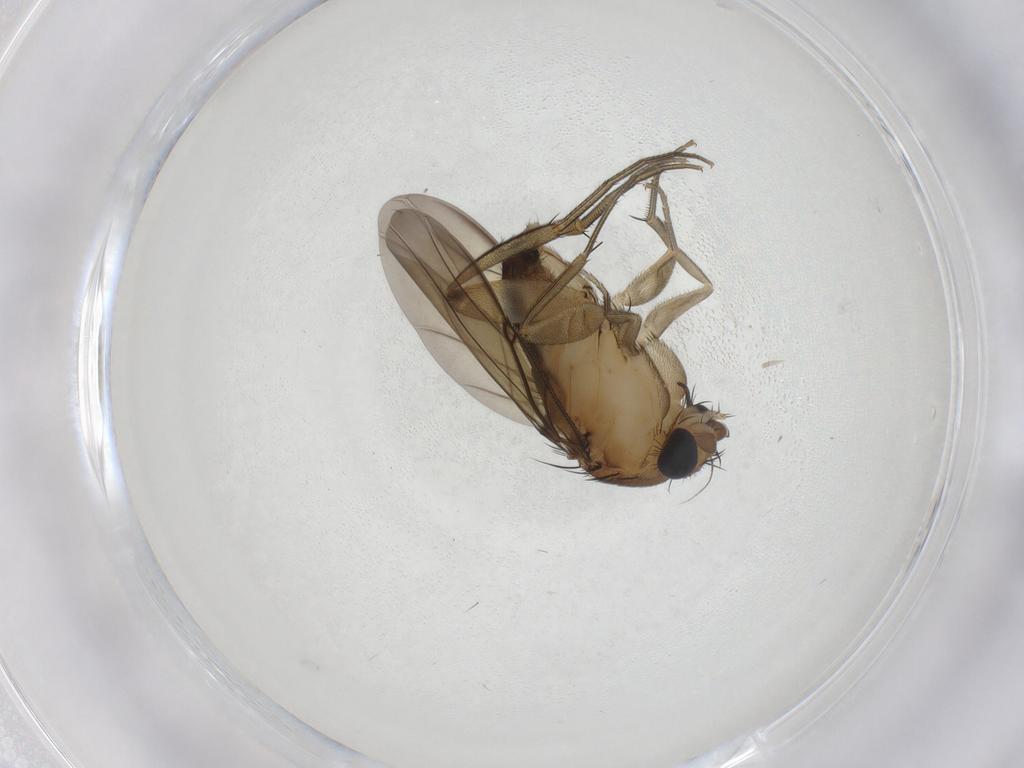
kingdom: Animalia
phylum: Arthropoda
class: Insecta
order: Diptera
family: Phoridae
